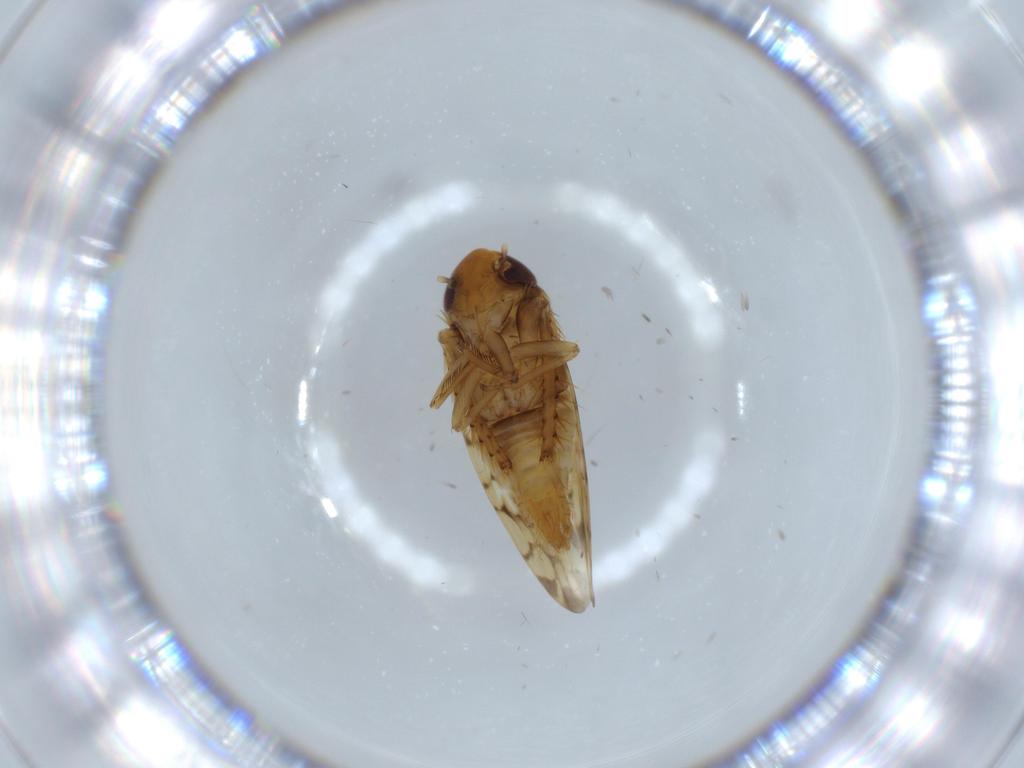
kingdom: Animalia
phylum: Arthropoda
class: Insecta
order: Hemiptera
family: Cicadellidae
